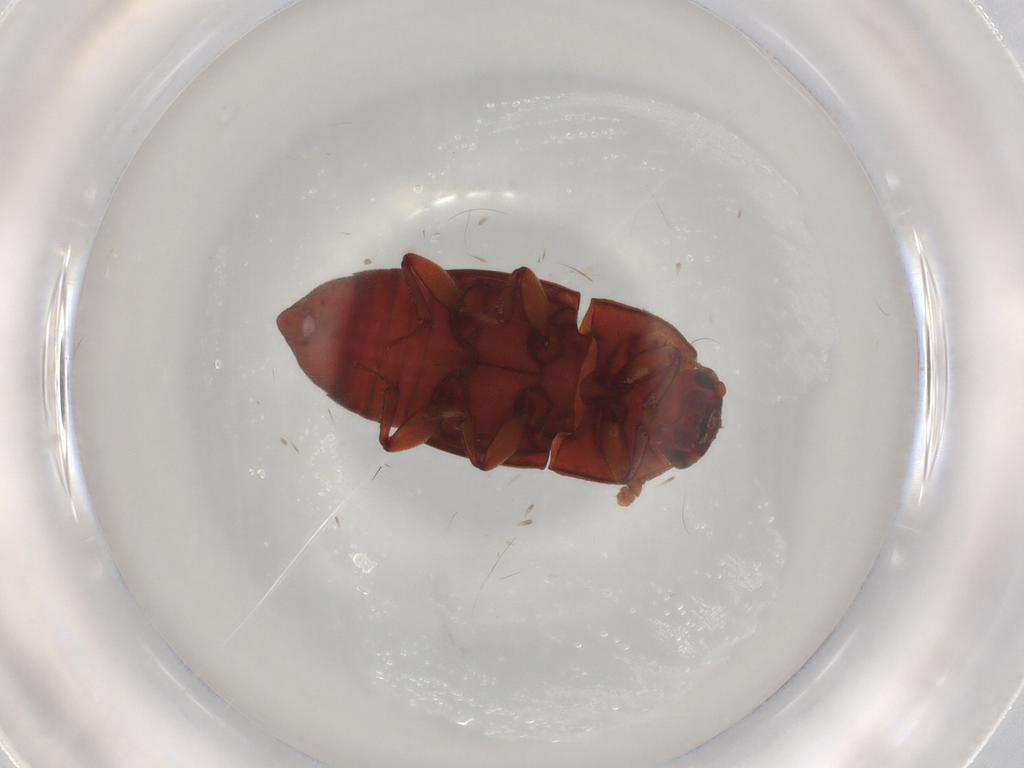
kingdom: Animalia
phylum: Arthropoda
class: Insecta
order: Coleoptera
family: Nitidulidae
